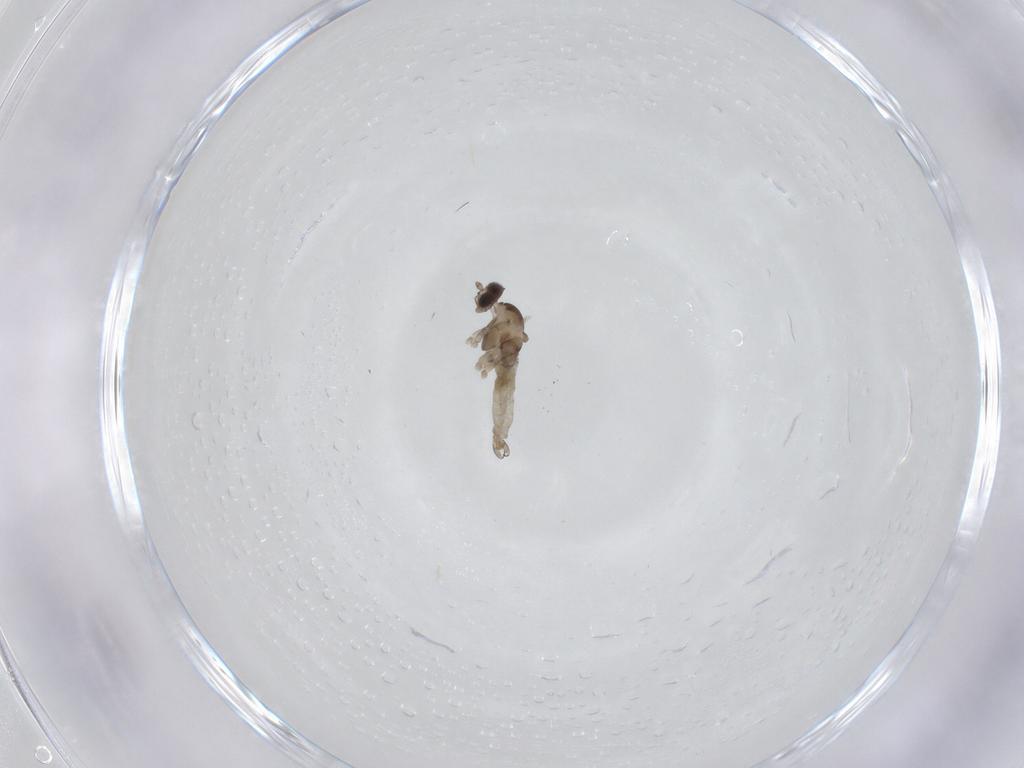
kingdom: Animalia
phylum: Arthropoda
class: Insecta
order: Diptera
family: Cecidomyiidae
